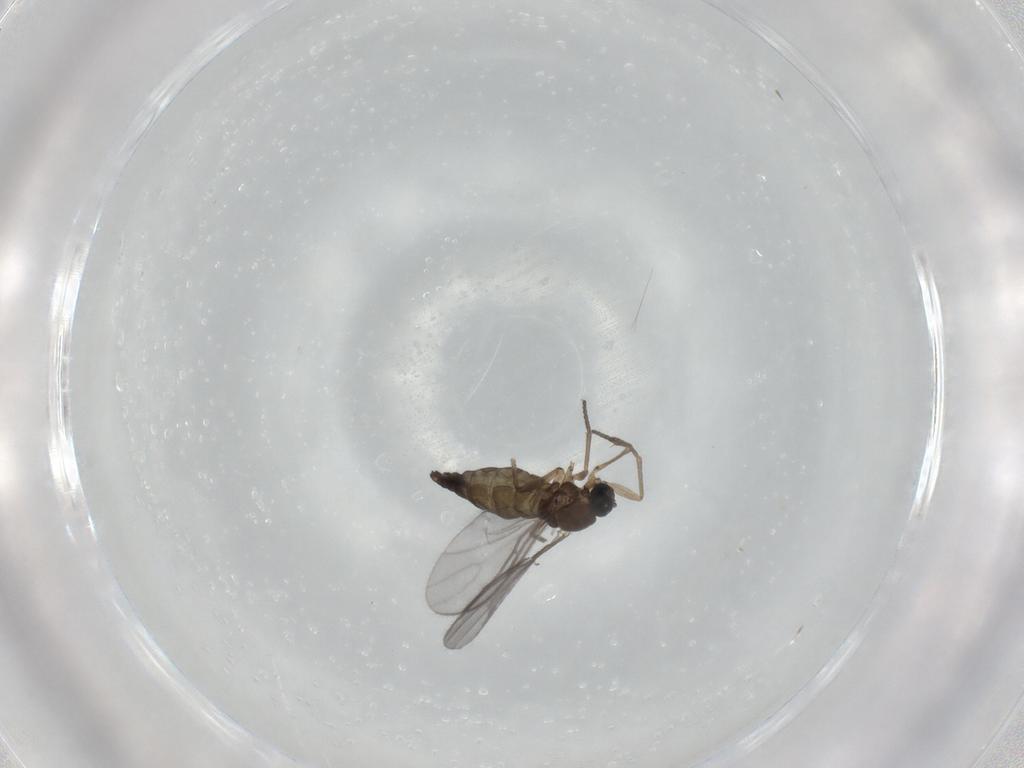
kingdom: Animalia
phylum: Arthropoda
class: Insecta
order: Diptera
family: Sciaridae
